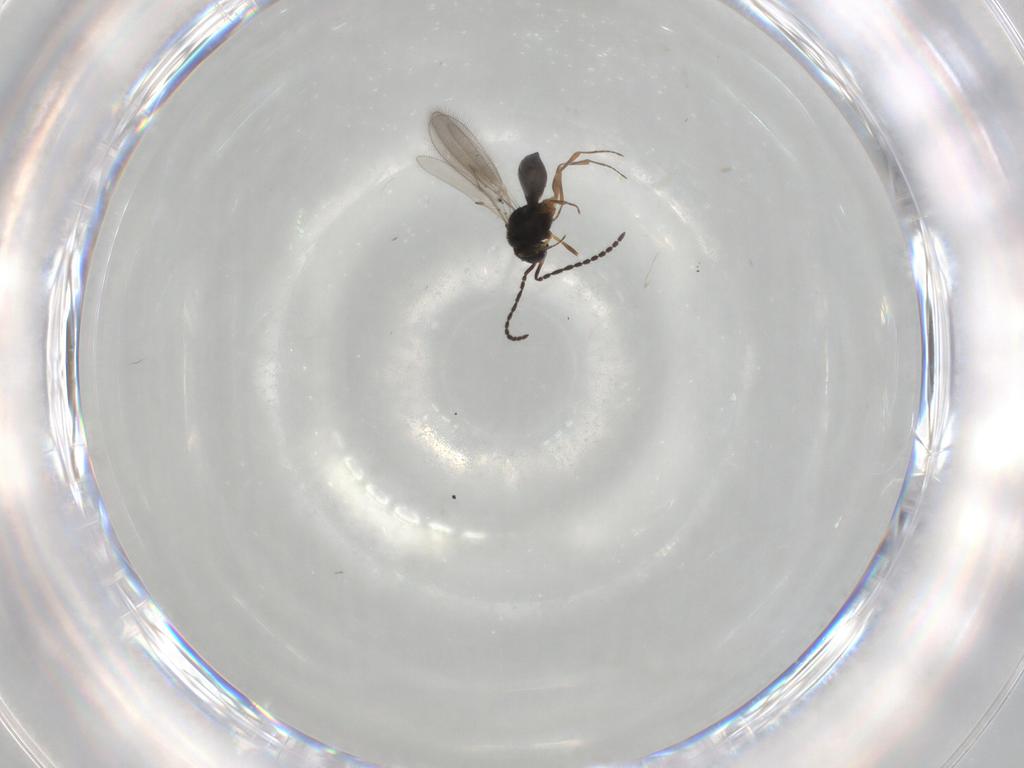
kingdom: Animalia
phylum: Arthropoda
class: Insecta
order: Hymenoptera
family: Scelionidae
